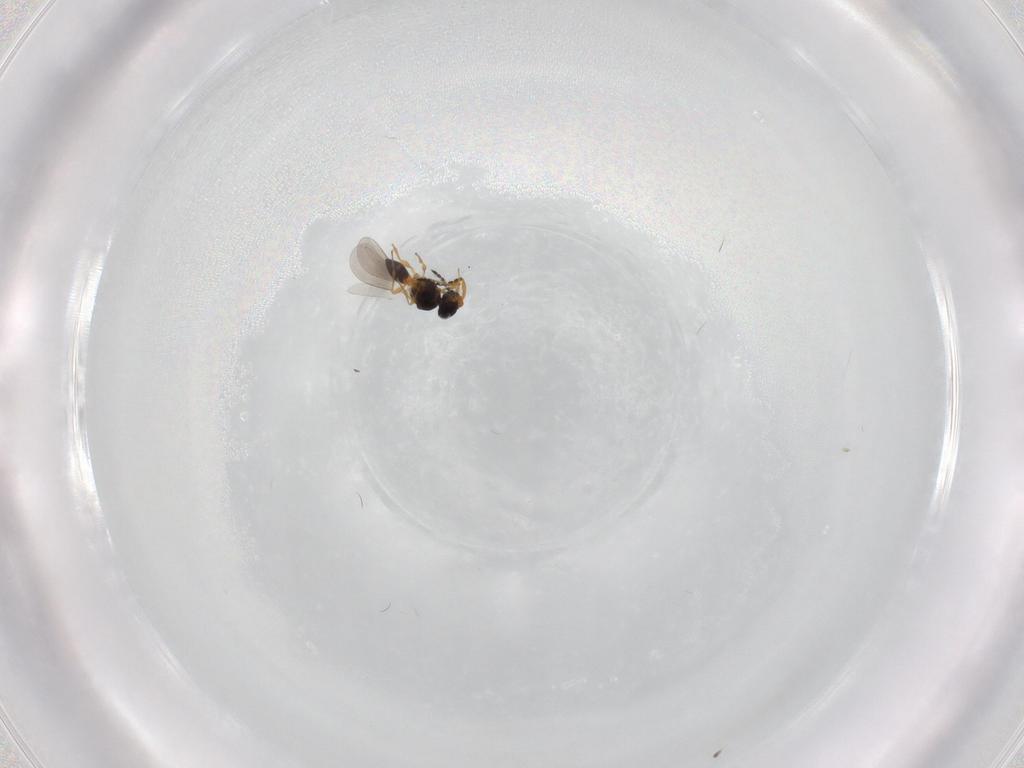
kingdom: Animalia
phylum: Arthropoda
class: Insecta
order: Hymenoptera
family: Platygastridae
